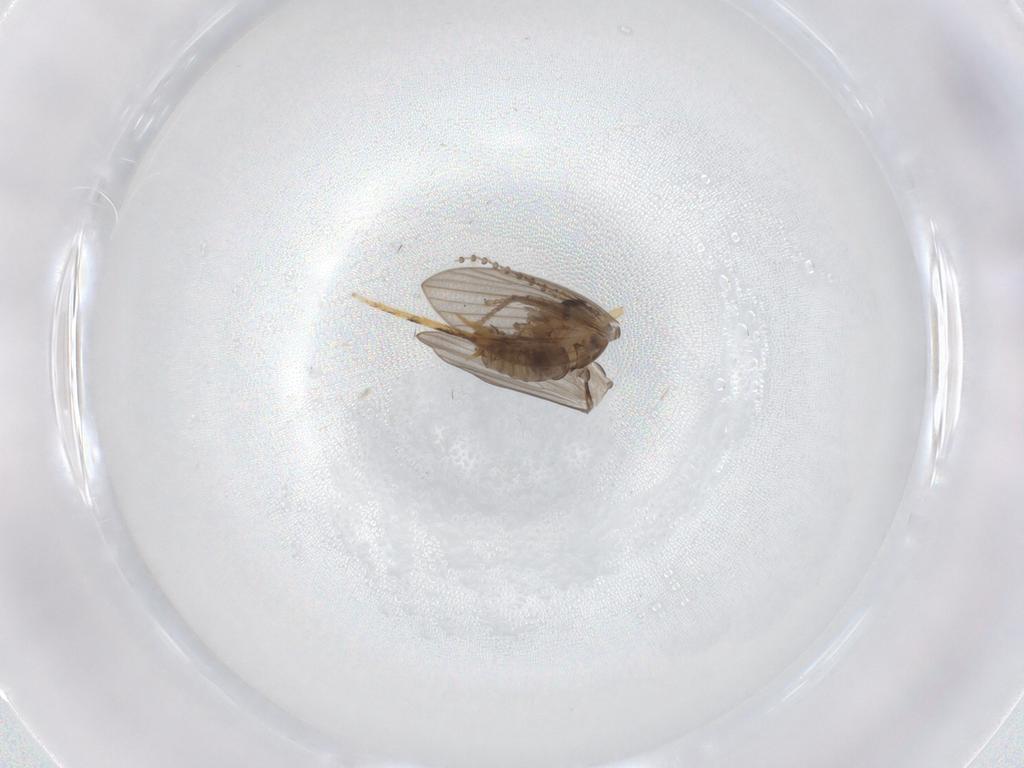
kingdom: Animalia
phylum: Arthropoda
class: Insecta
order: Diptera
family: Psychodidae
